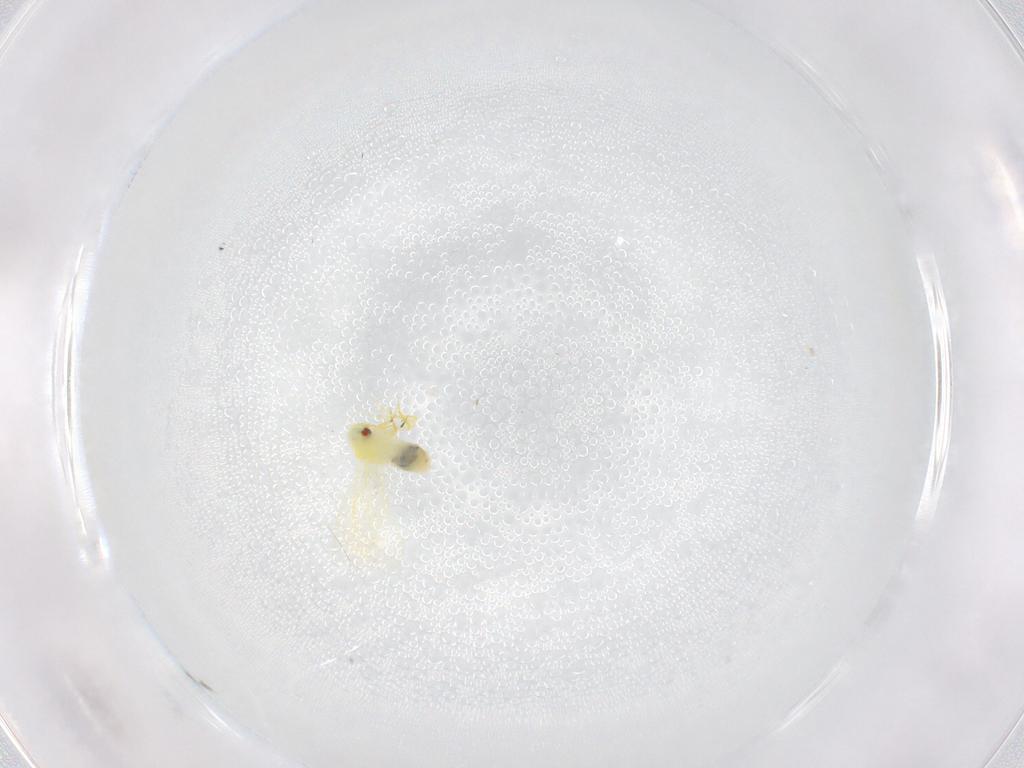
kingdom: Animalia
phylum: Arthropoda
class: Insecta
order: Hemiptera
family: Aleyrodidae
